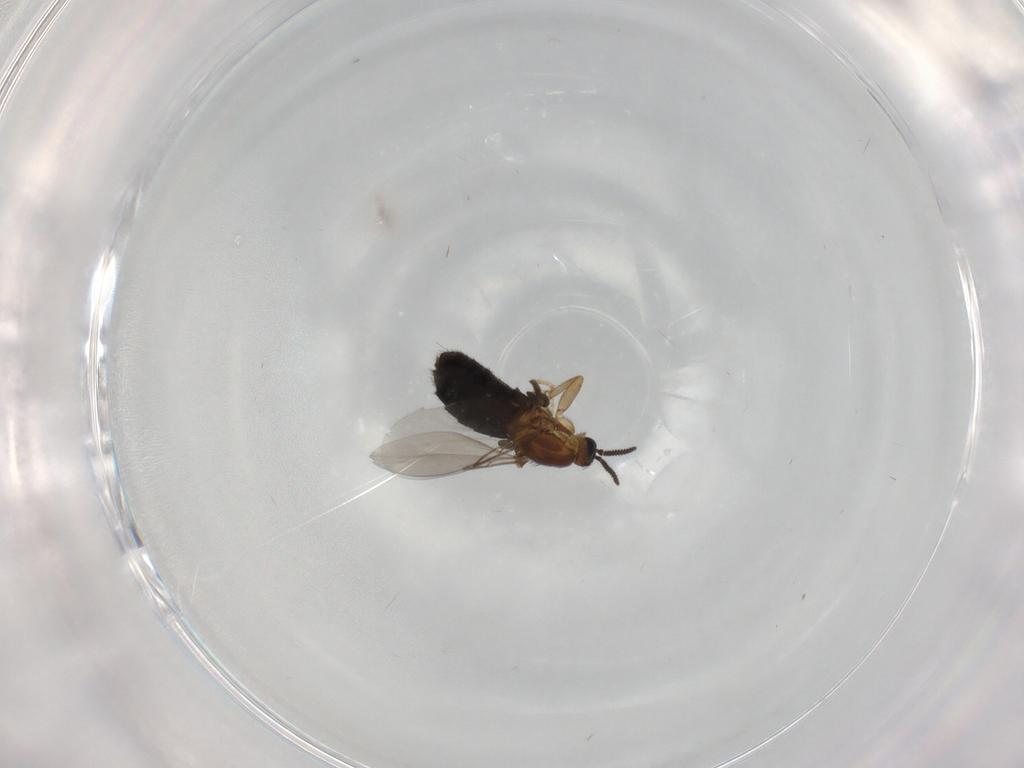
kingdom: Animalia
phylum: Arthropoda
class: Insecta
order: Diptera
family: Scatopsidae
